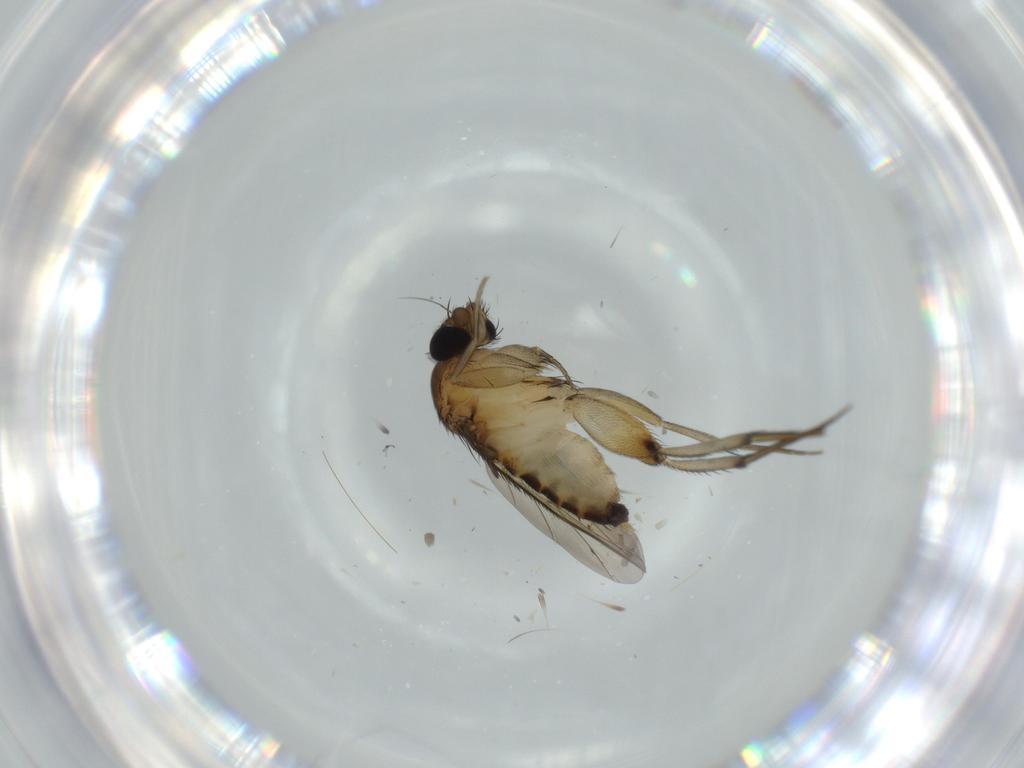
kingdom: Animalia
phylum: Arthropoda
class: Insecta
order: Diptera
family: Phoridae
